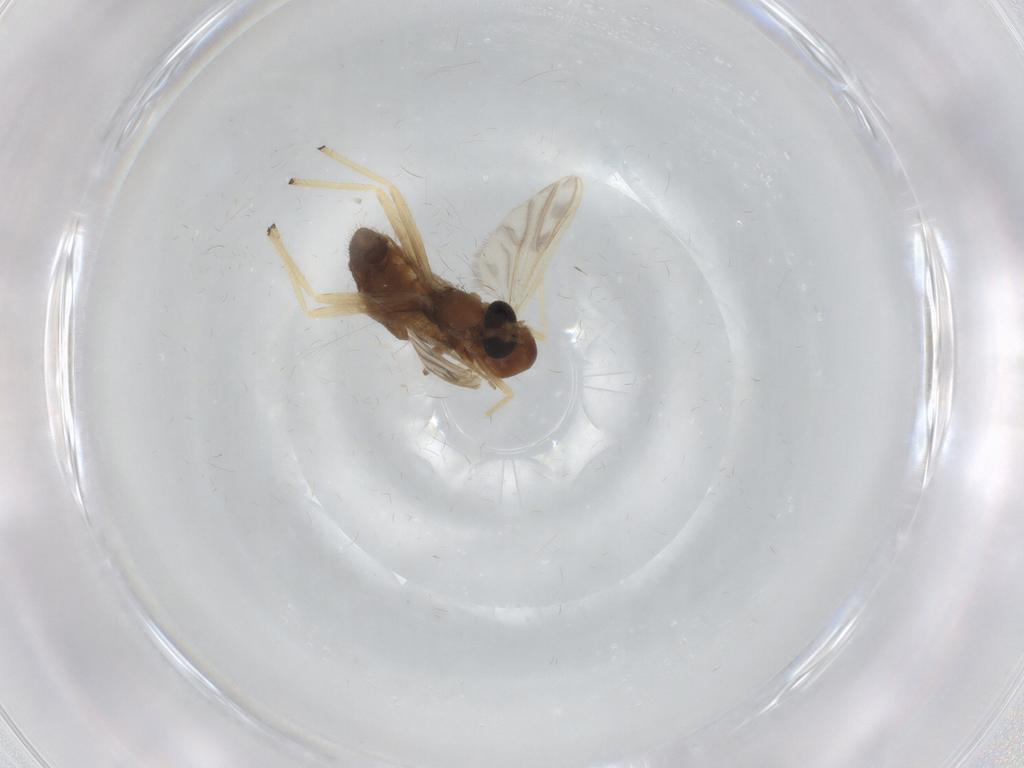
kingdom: Animalia
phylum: Arthropoda
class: Insecta
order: Diptera
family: Chironomidae
